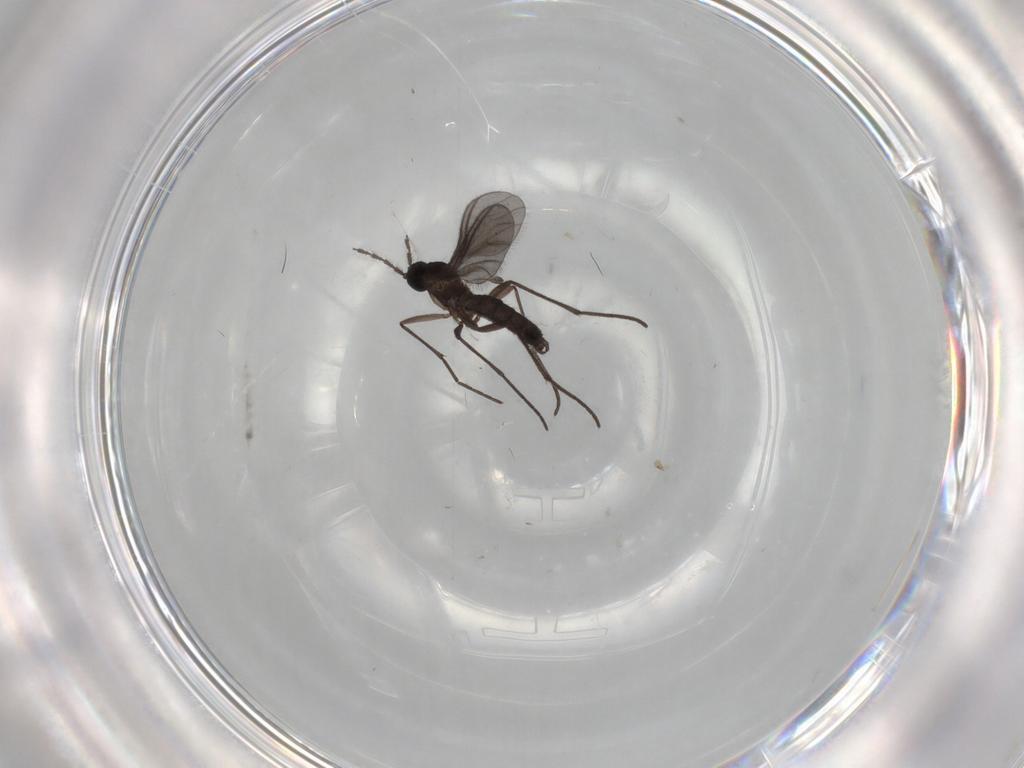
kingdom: Animalia
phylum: Arthropoda
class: Insecta
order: Diptera
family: Sciaridae
